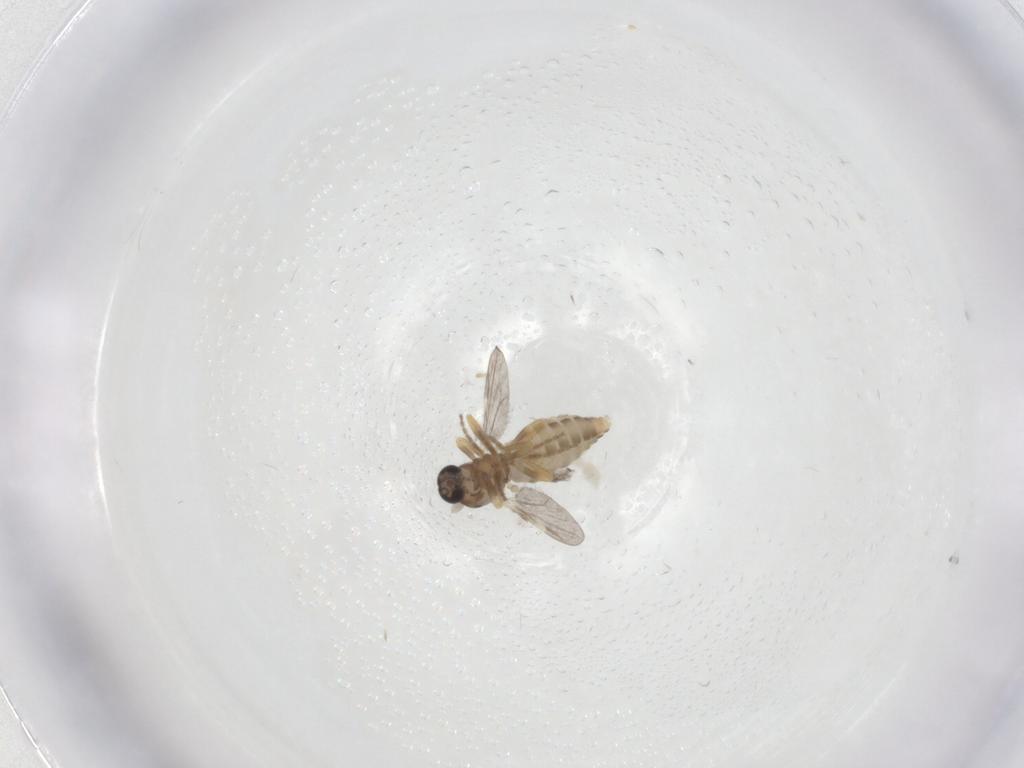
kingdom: Animalia
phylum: Arthropoda
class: Insecta
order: Diptera
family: Ceratopogonidae
